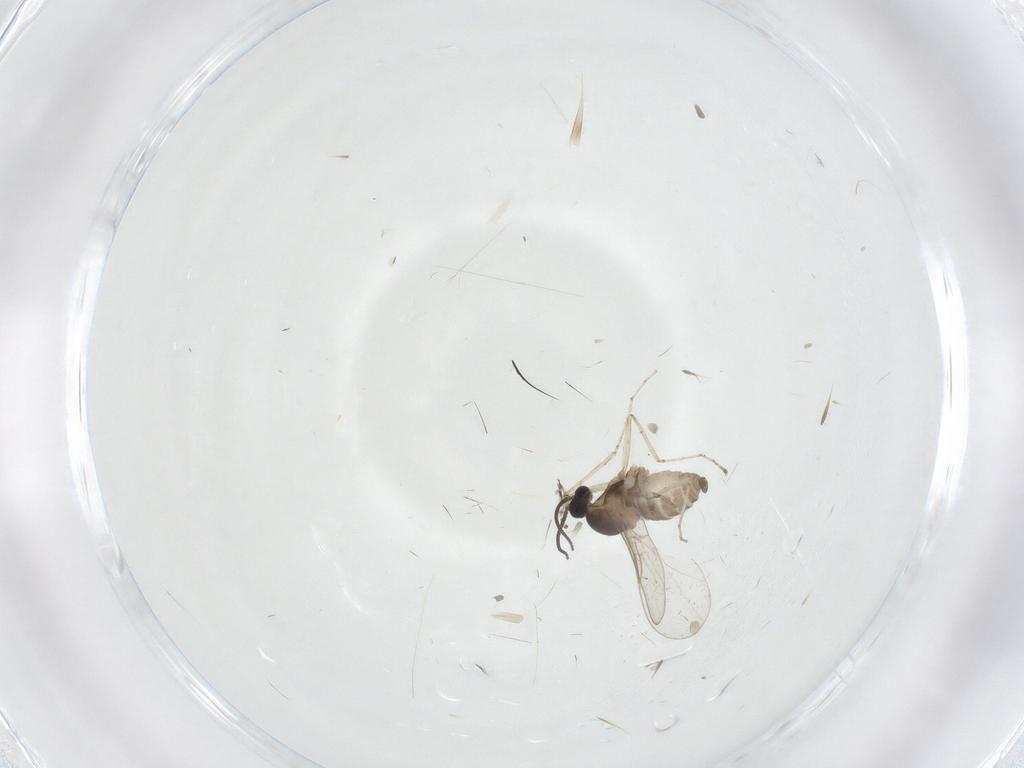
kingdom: Animalia
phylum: Arthropoda
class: Insecta
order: Diptera
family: Cecidomyiidae
